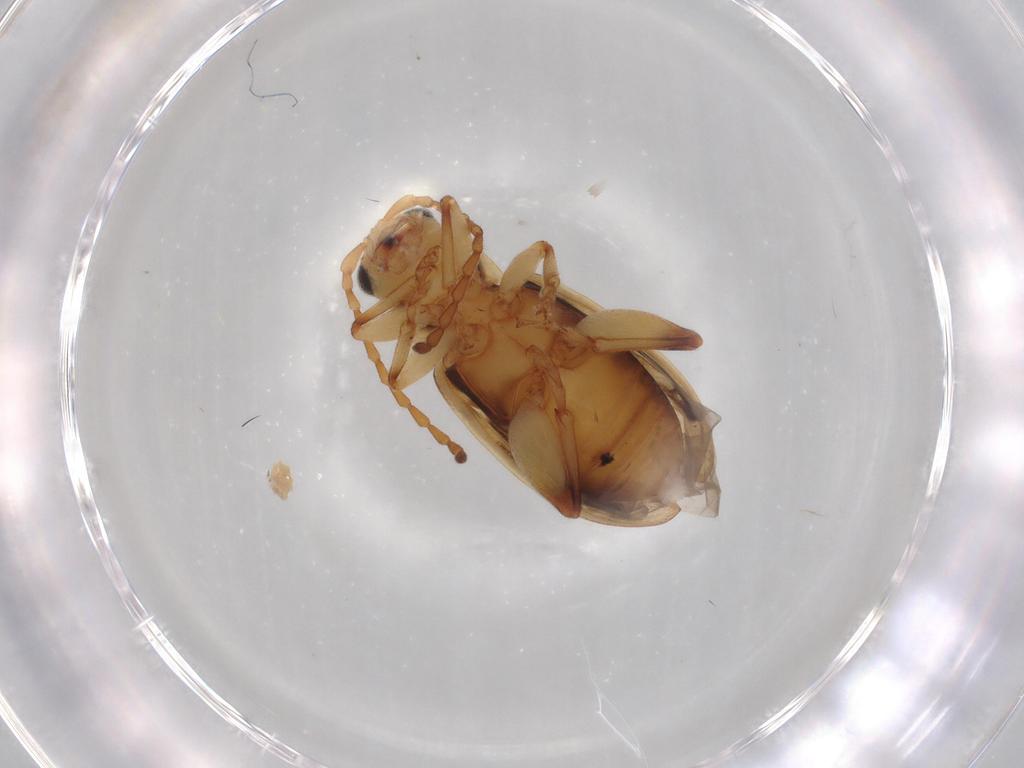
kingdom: Animalia
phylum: Arthropoda
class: Insecta
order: Coleoptera
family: Chrysomelidae
